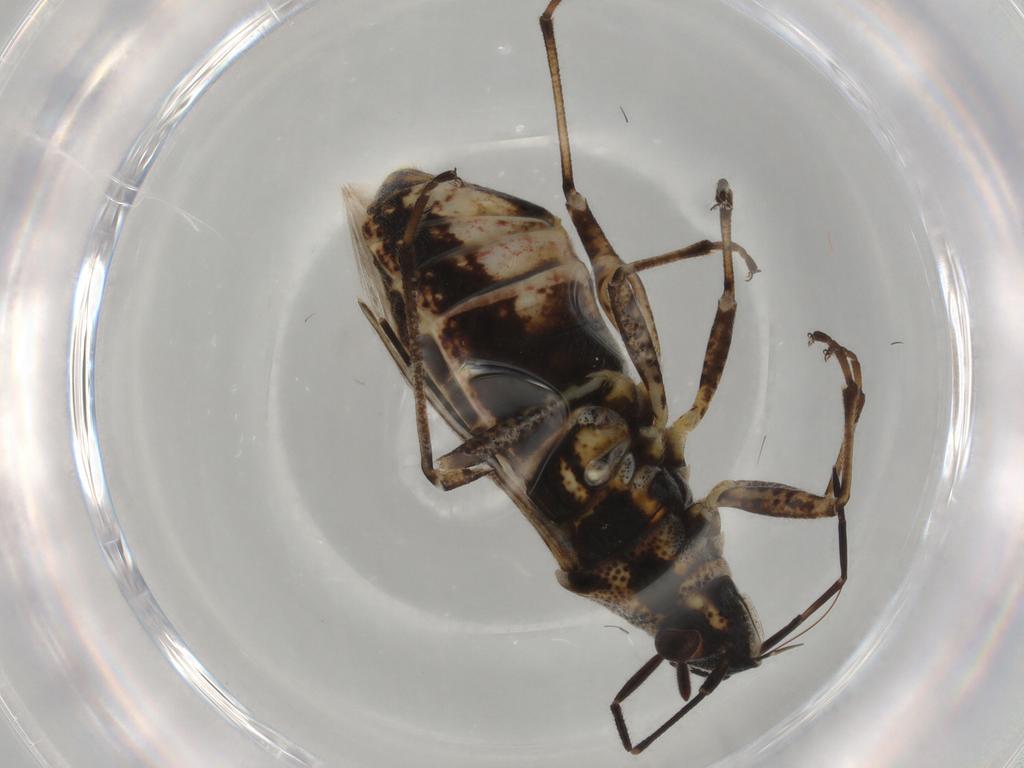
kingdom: Animalia
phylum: Arthropoda
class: Insecta
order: Hemiptera
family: Lygaeidae
